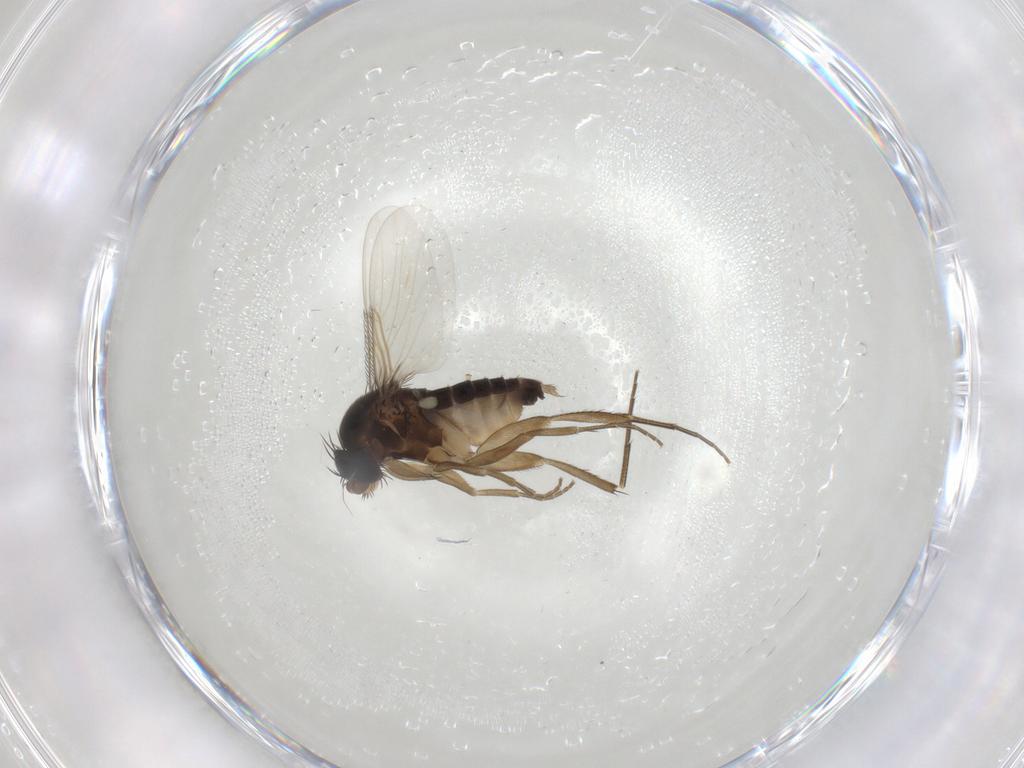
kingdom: Animalia
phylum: Arthropoda
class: Insecta
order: Diptera
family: Phoridae
